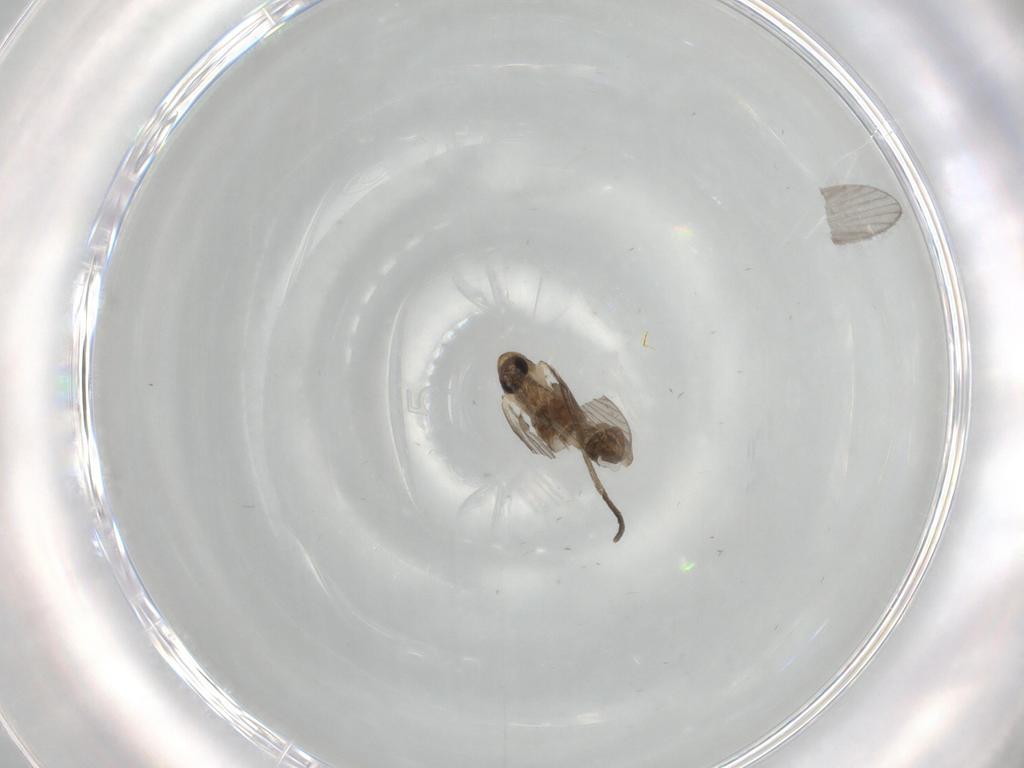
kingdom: Animalia
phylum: Arthropoda
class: Insecta
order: Diptera
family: Psychodidae
